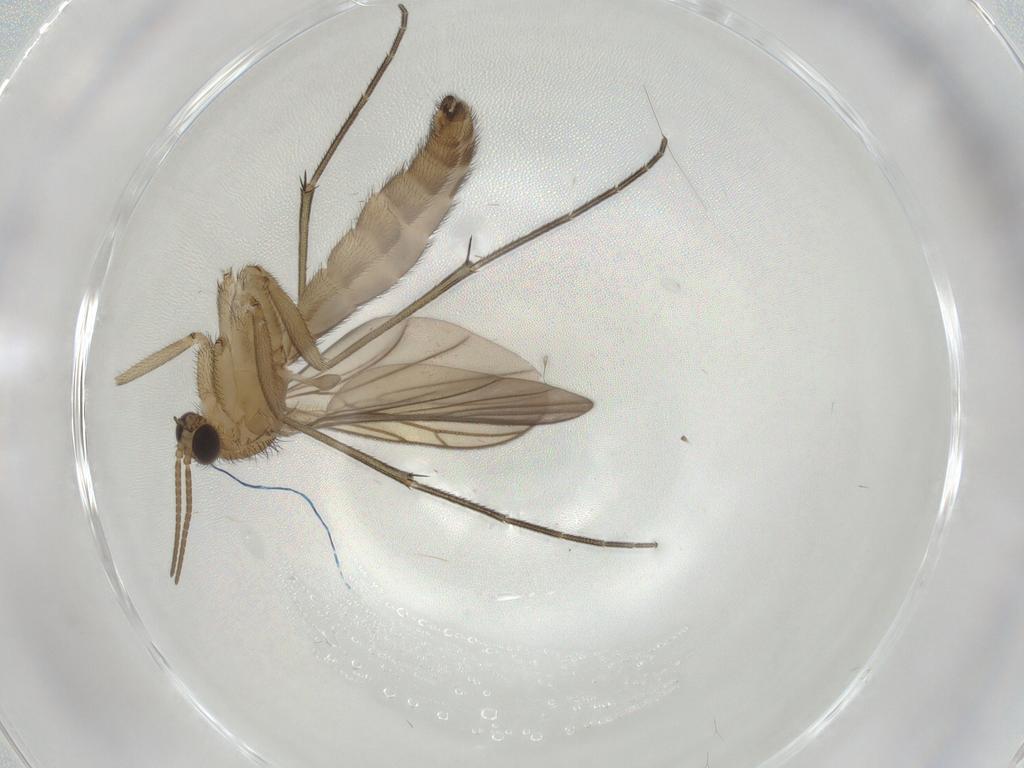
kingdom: Animalia
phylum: Arthropoda
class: Insecta
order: Diptera
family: Keroplatidae
